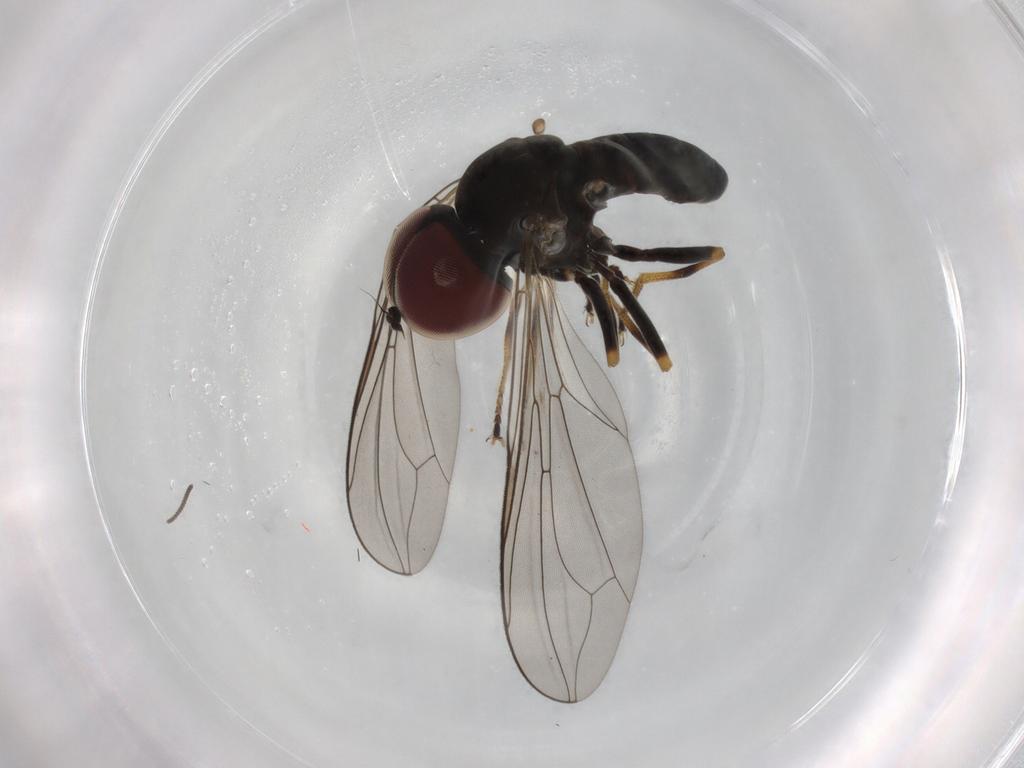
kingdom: Animalia
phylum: Arthropoda
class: Insecta
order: Diptera
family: Pipunculidae
